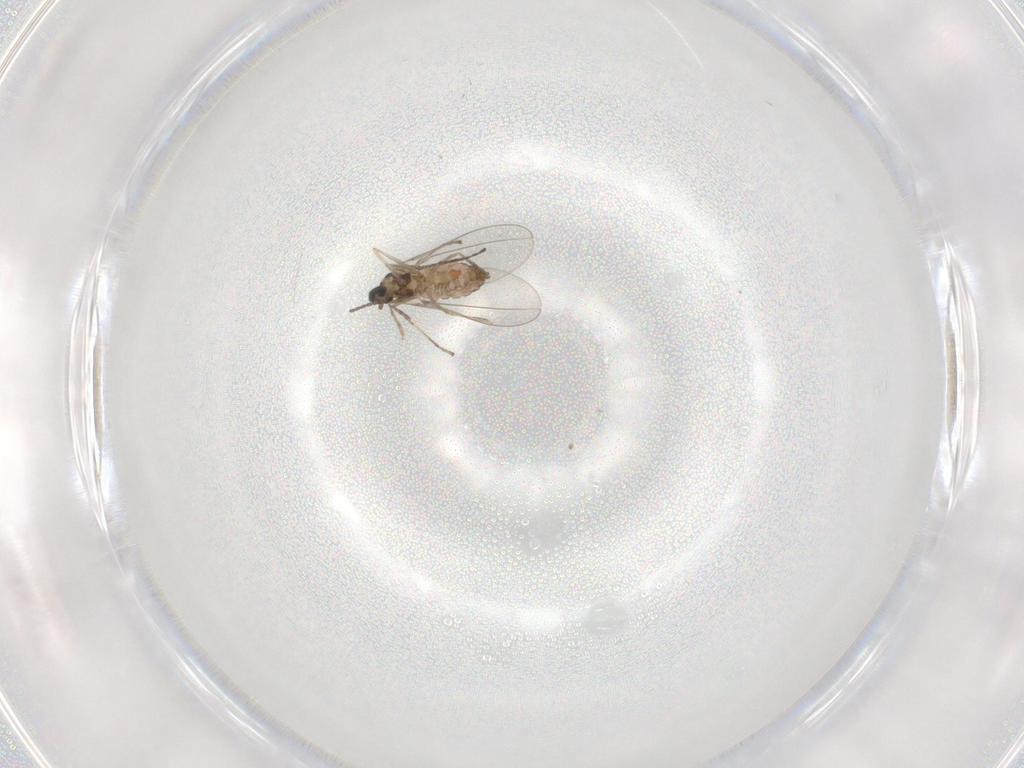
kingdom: Animalia
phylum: Arthropoda
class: Insecta
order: Diptera
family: Cecidomyiidae
